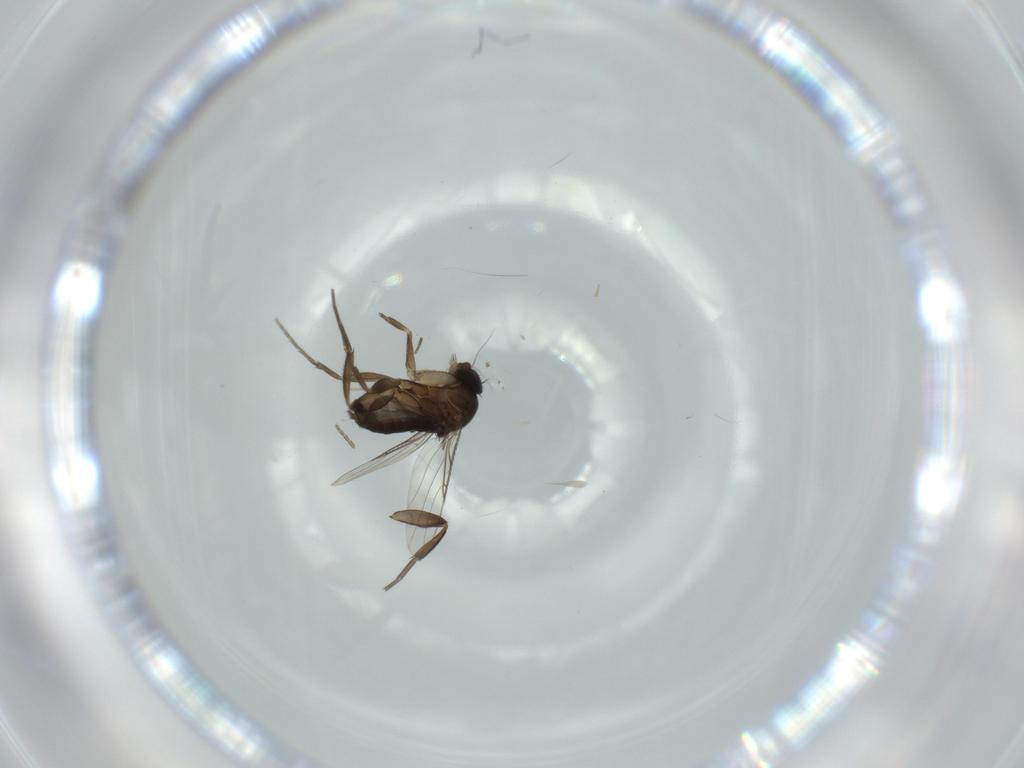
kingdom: Animalia
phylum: Arthropoda
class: Insecta
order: Diptera
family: Phoridae
